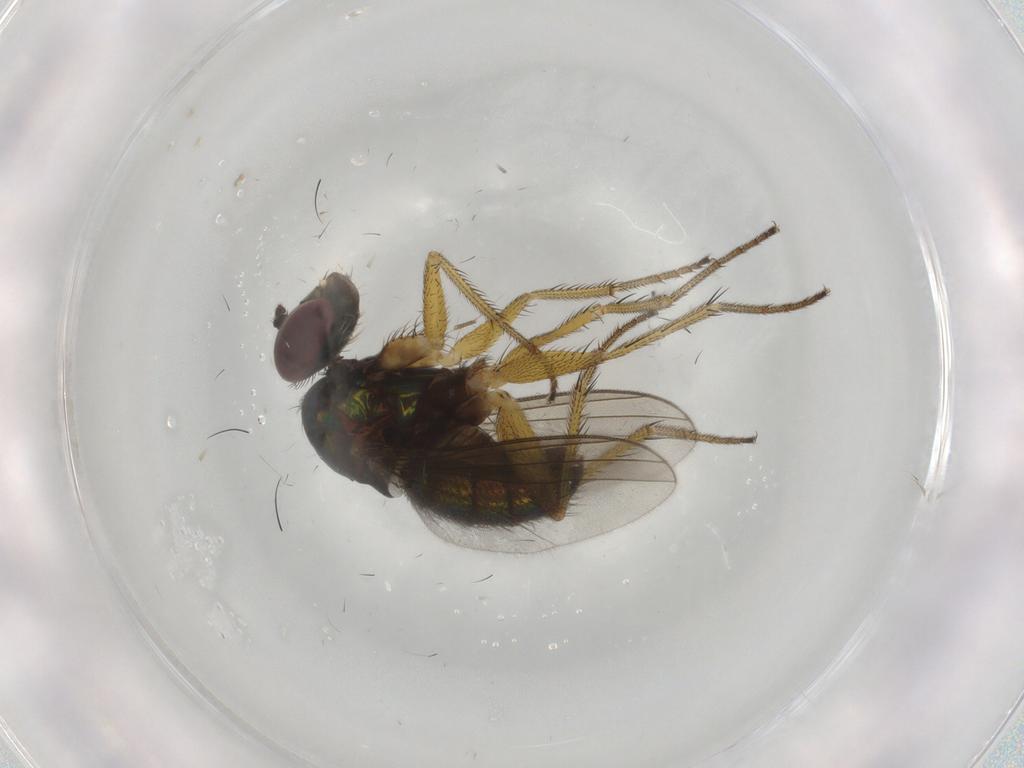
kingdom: Animalia
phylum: Arthropoda
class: Insecta
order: Diptera
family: Dolichopodidae
